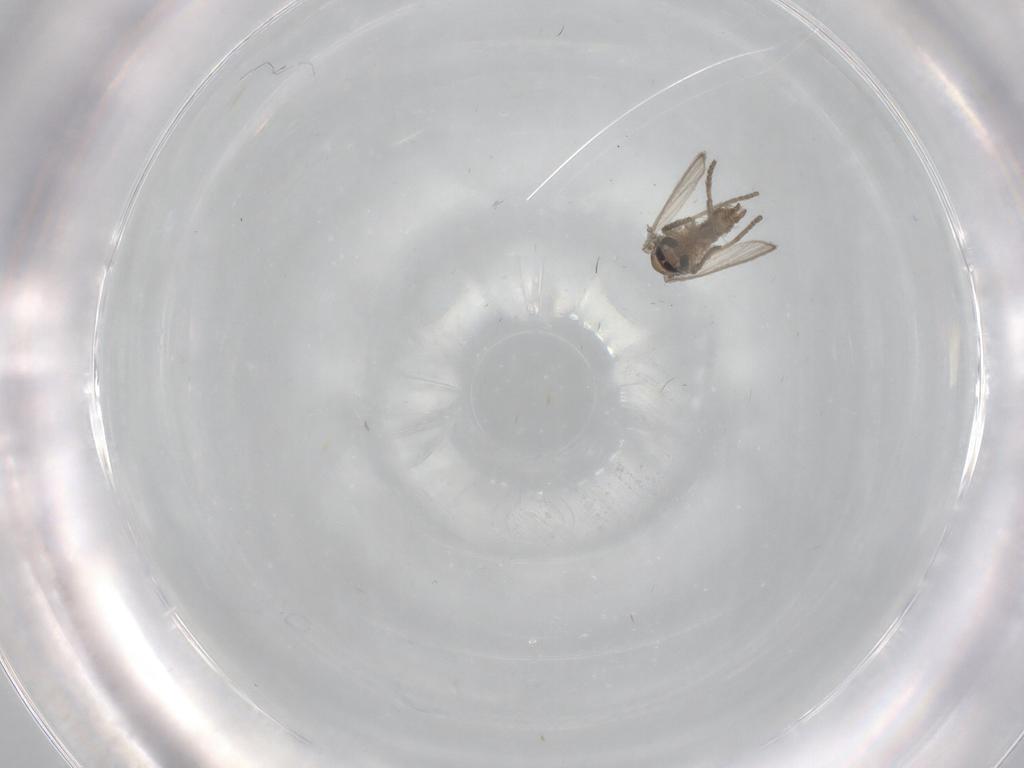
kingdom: Animalia
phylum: Arthropoda
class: Insecta
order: Diptera
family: Psychodidae
